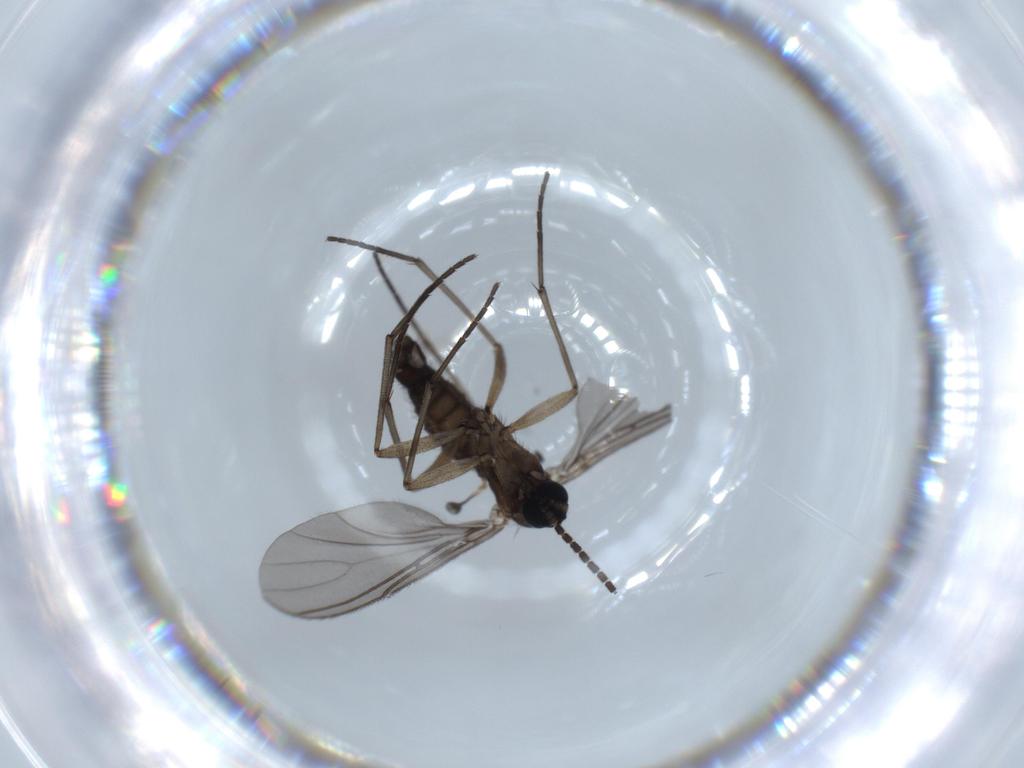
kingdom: Animalia
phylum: Arthropoda
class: Insecta
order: Diptera
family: Sciaridae
